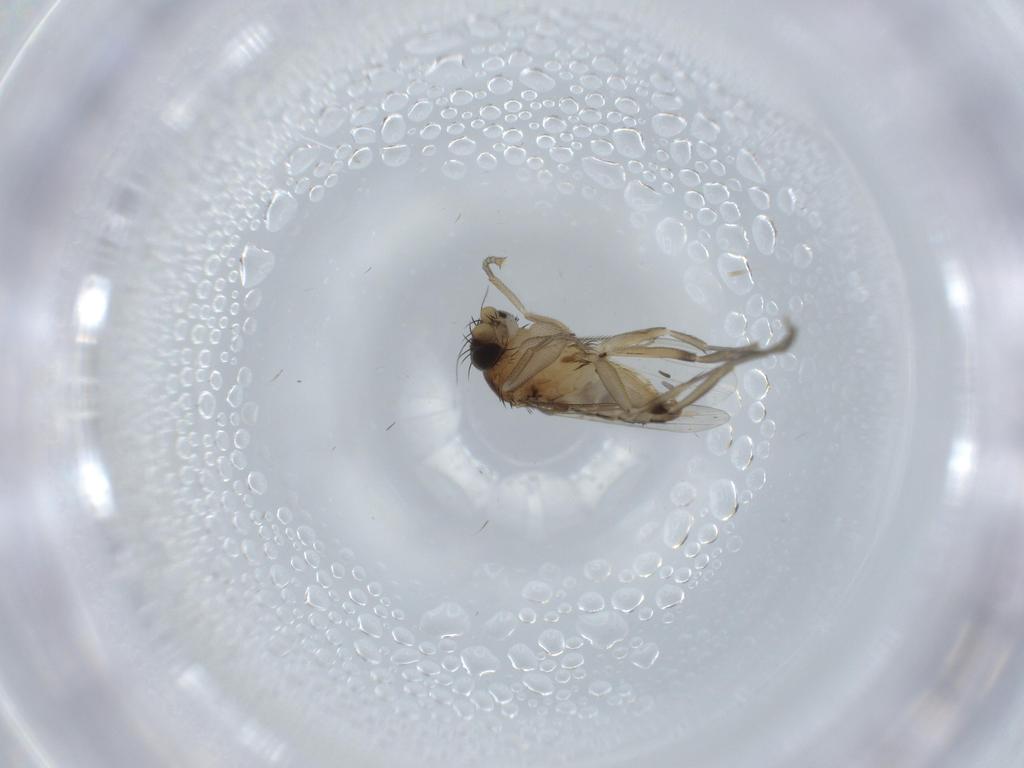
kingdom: Animalia
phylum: Arthropoda
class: Insecta
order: Diptera
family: Phoridae
